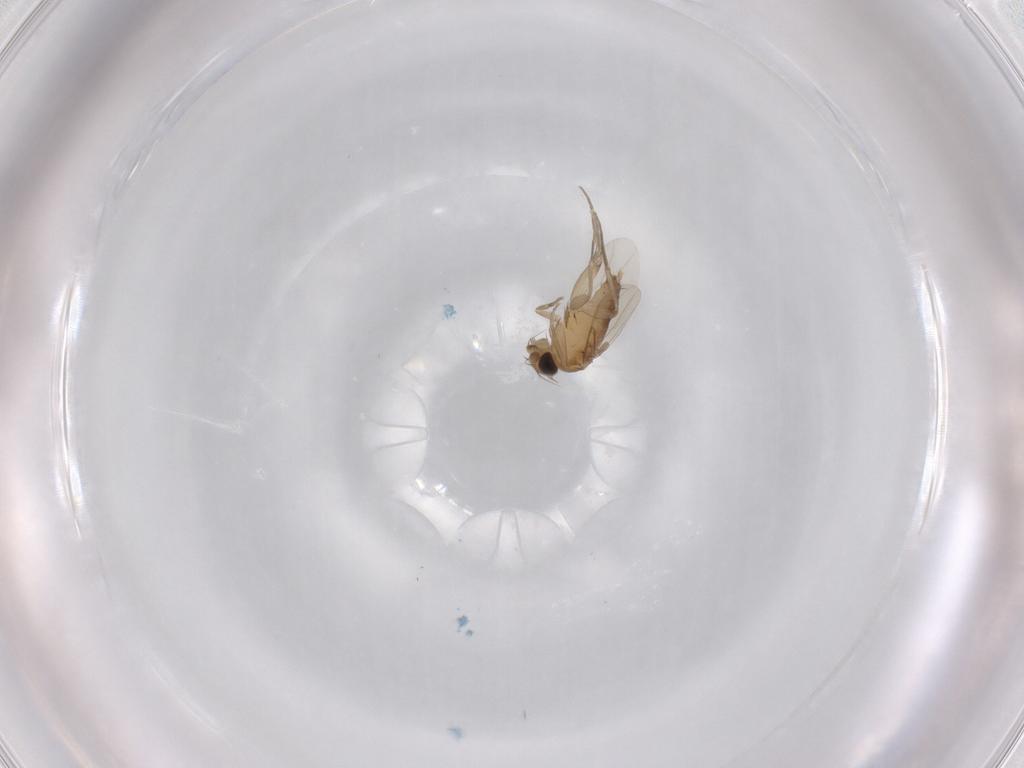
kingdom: Animalia
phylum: Arthropoda
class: Insecta
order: Diptera
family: Phoridae
